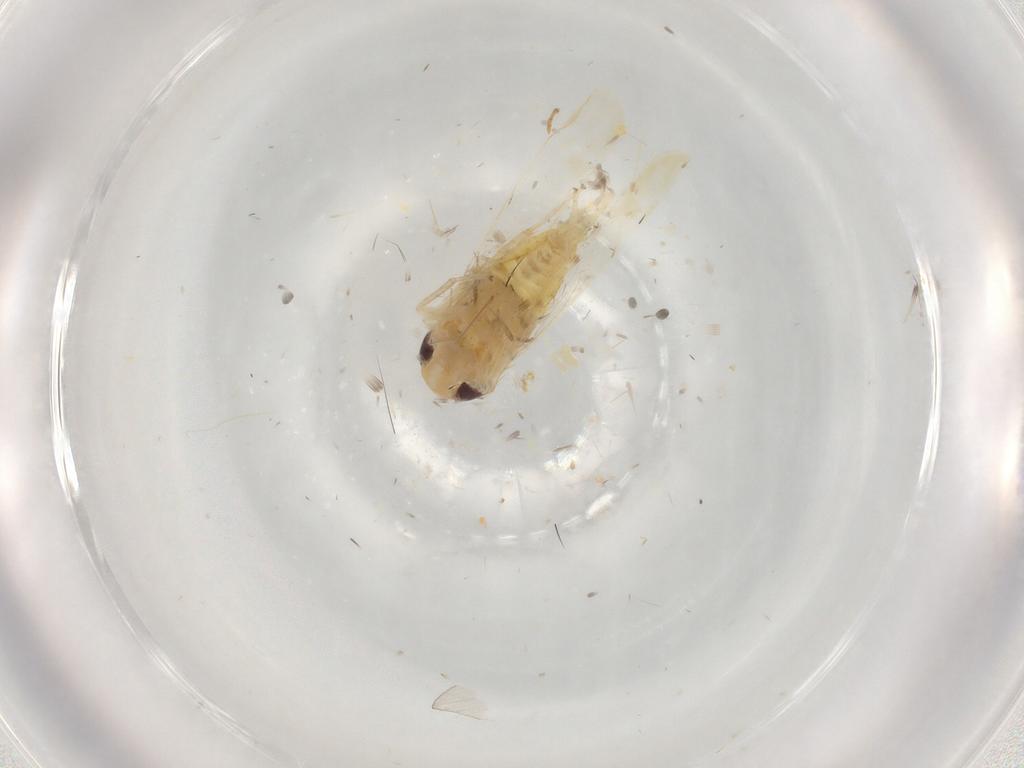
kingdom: Animalia
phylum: Arthropoda
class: Insecta
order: Hemiptera
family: Cicadellidae
